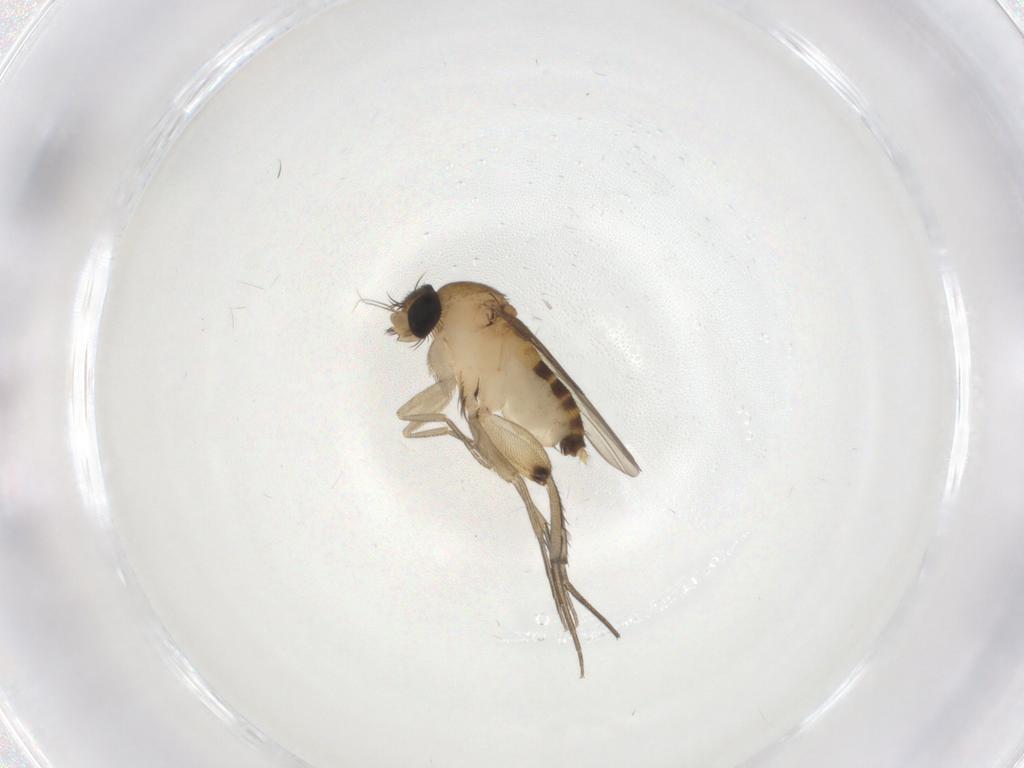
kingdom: Animalia
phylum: Arthropoda
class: Insecta
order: Diptera
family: Phoridae
